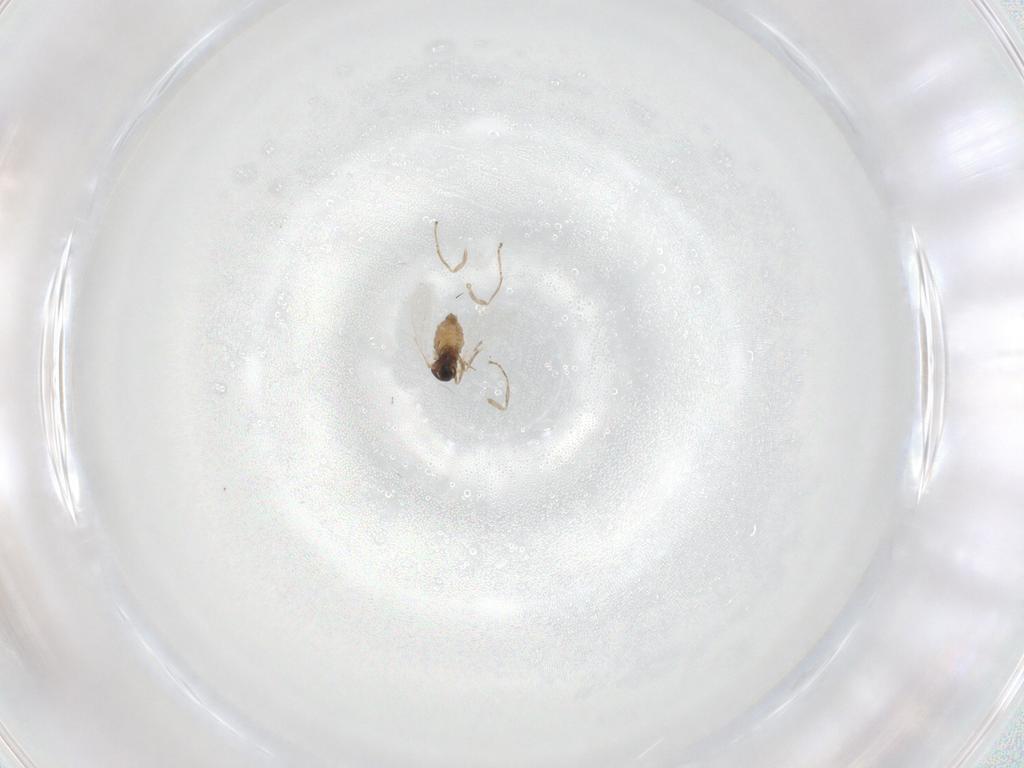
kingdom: Animalia
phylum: Arthropoda
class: Insecta
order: Diptera
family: Cecidomyiidae
